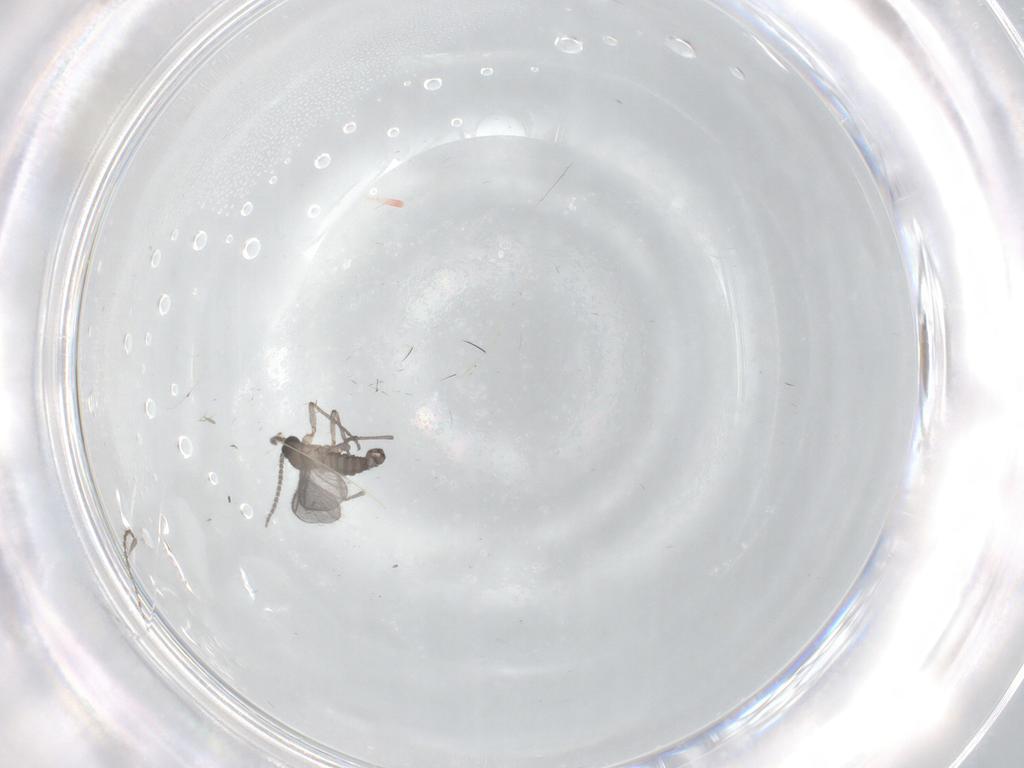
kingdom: Animalia
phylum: Arthropoda
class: Insecta
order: Diptera
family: Sciaridae
